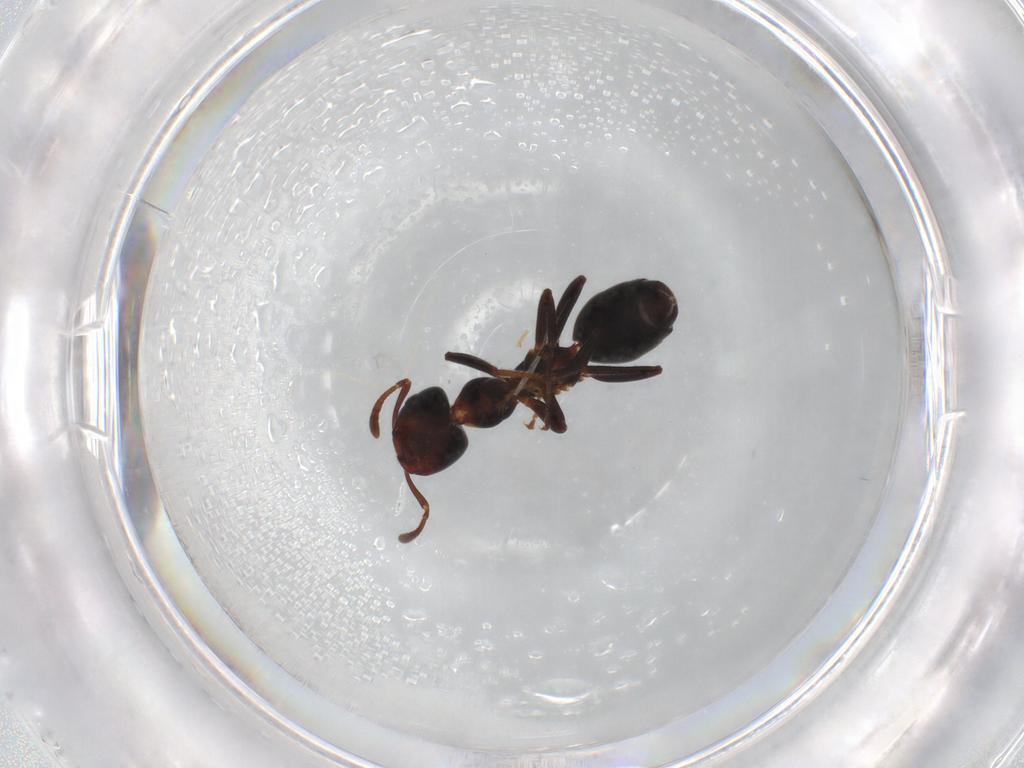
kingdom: Animalia
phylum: Arthropoda
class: Insecta
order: Hymenoptera
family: Formicidae
